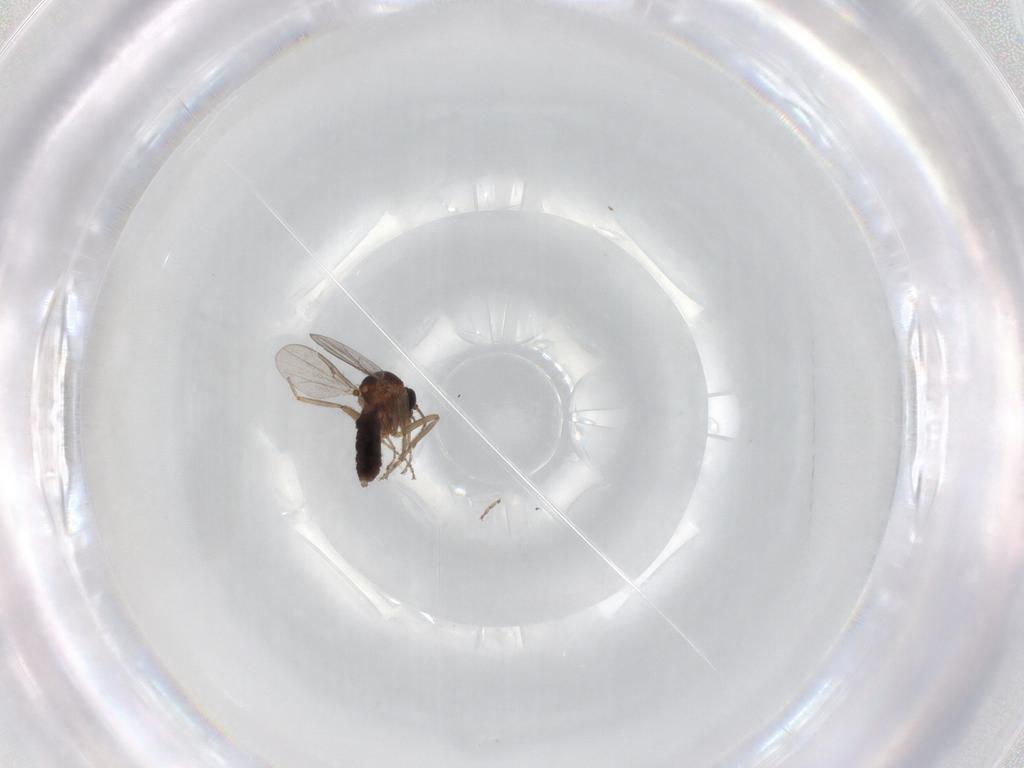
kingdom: Animalia
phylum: Arthropoda
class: Insecta
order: Diptera
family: Ceratopogonidae
